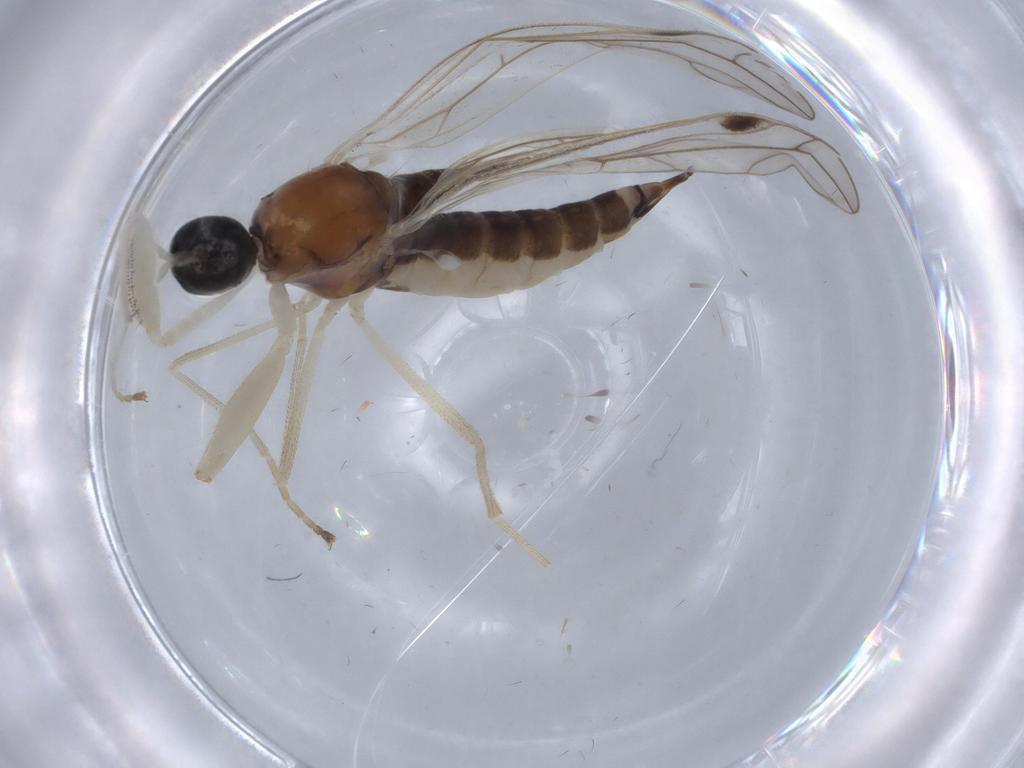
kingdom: Animalia
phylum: Arthropoda
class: Insecta
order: Diptera
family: Empididae
